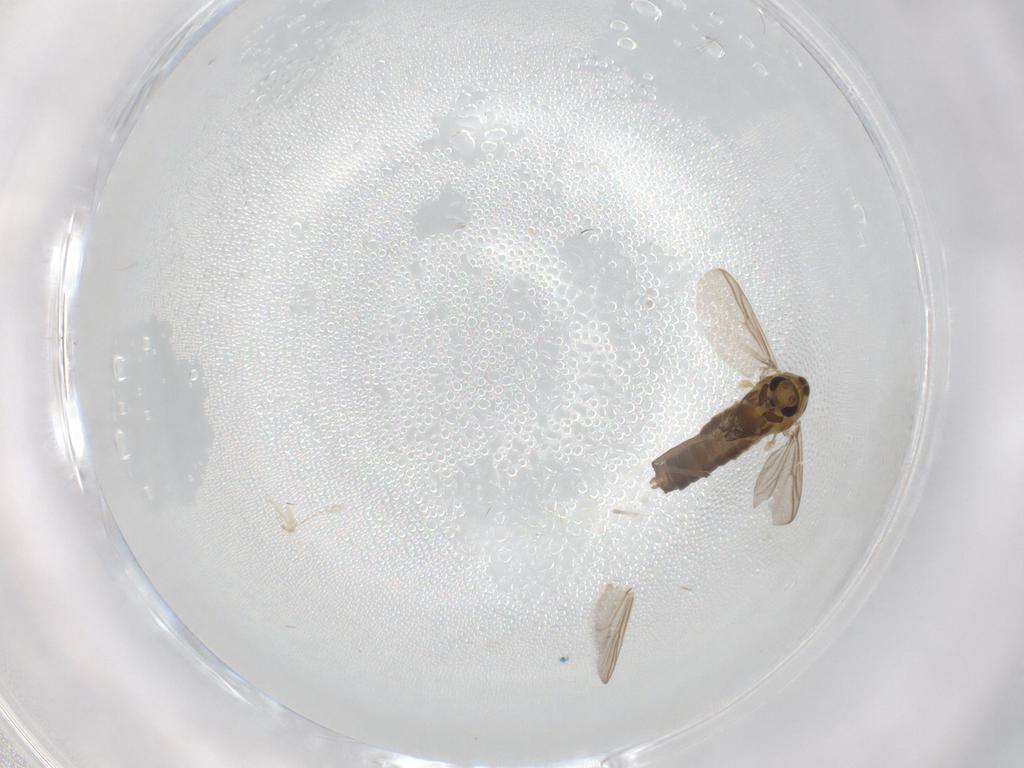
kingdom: Animalia
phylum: Arthropoda
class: Insecta
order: Diptera
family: Chironomidae
